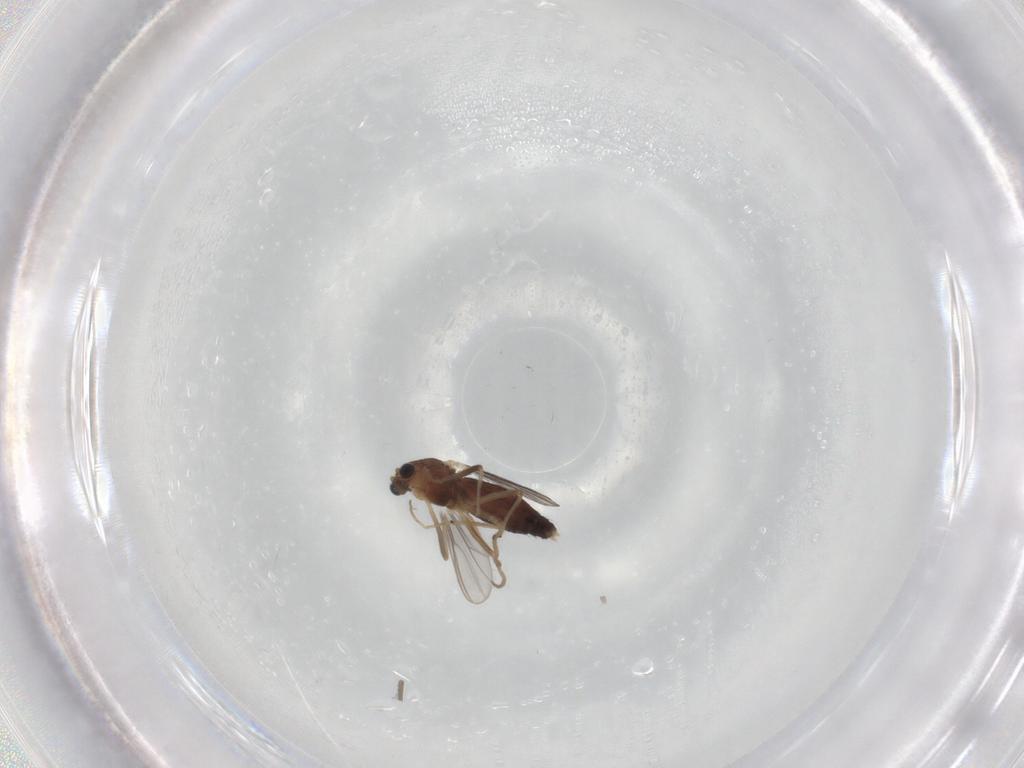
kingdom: Animalia
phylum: Arthropoda
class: Insecta
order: Diptera
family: Chironomidae
